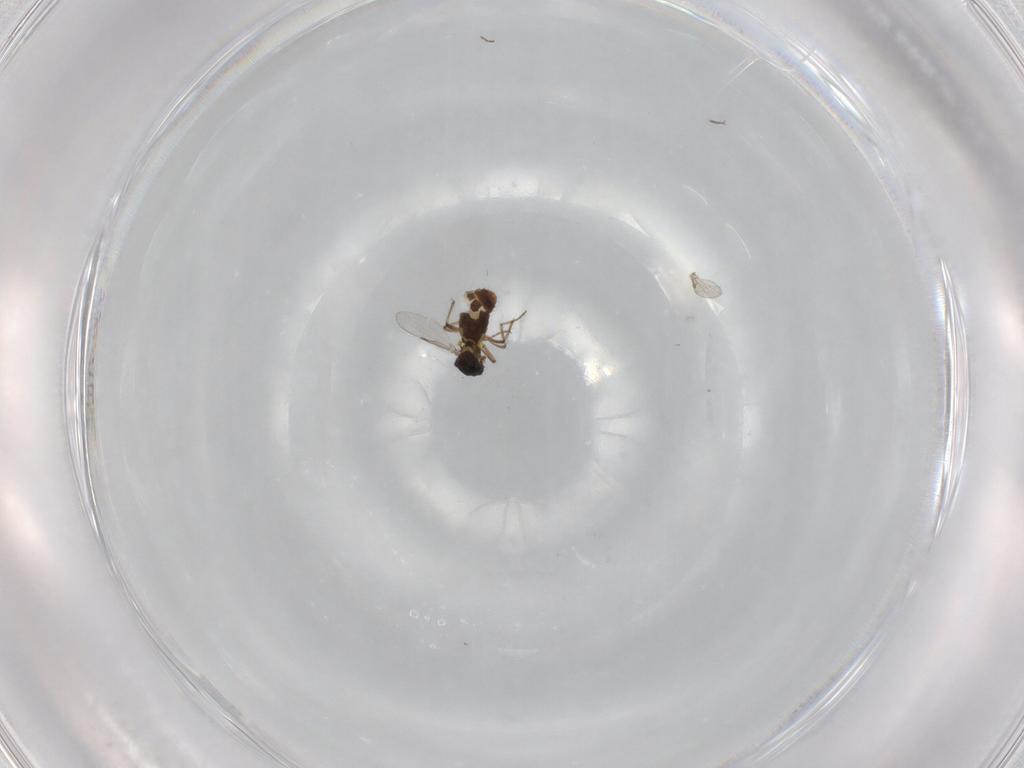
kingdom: Animalia
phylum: Arthropoda
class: Insecta
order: Diptera
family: Ceratopogonidae
